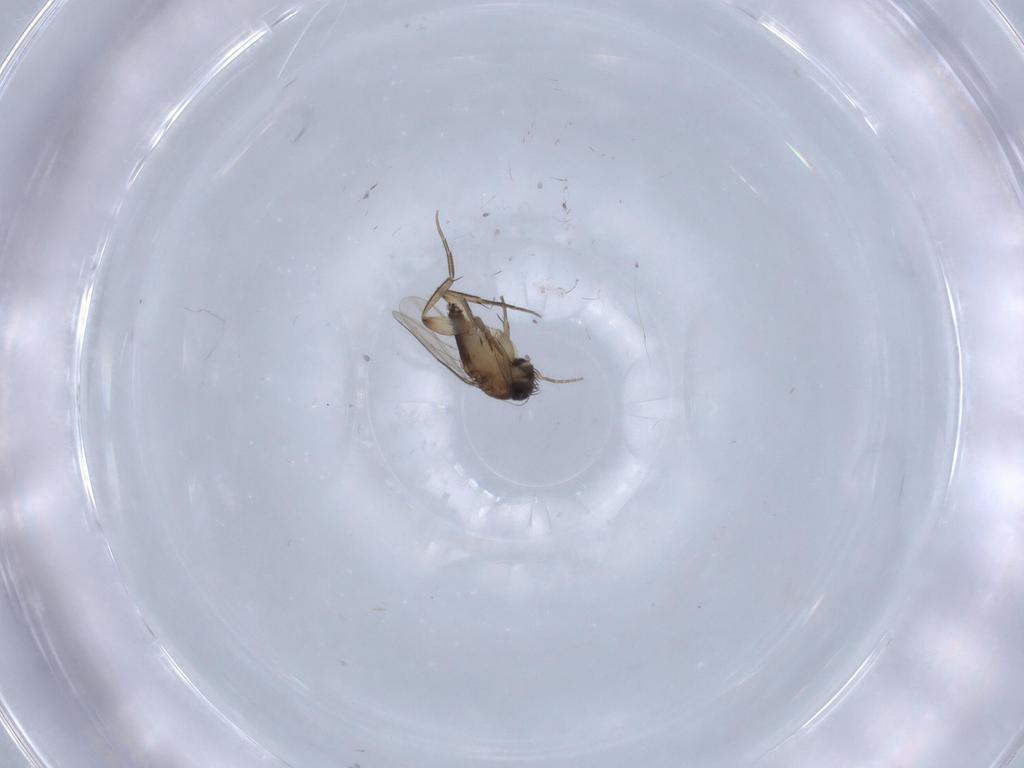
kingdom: Animalia
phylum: Arthropoda
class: Insecta
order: Diptera
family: Phoridae
